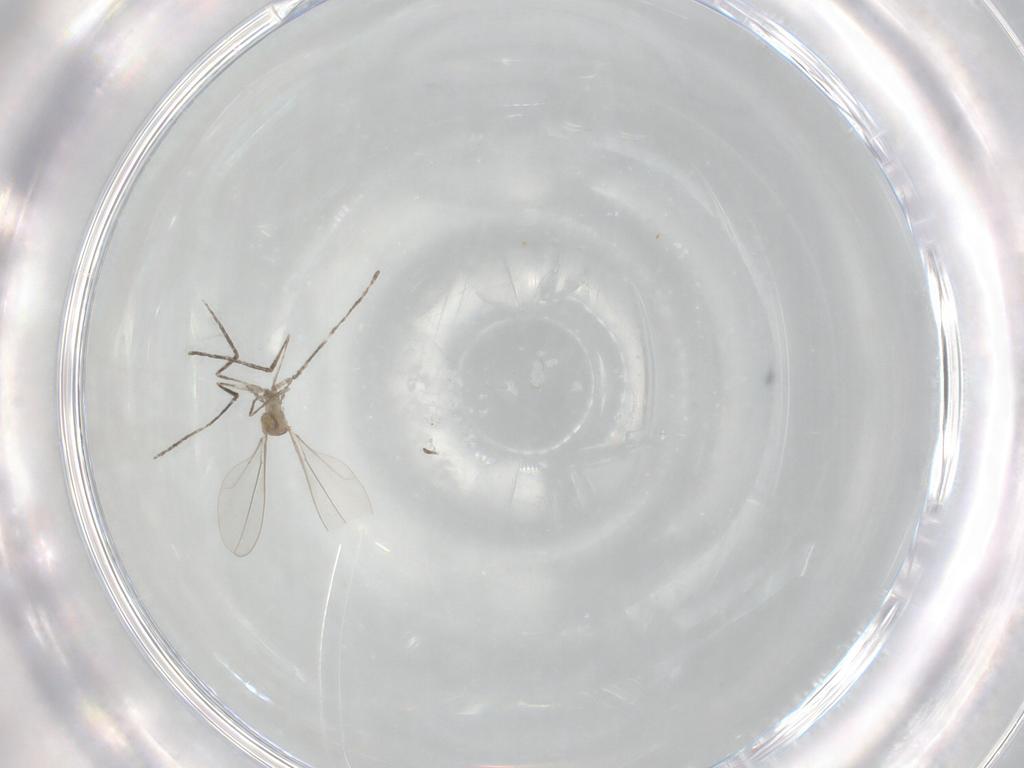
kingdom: Animalia
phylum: Arthropoda
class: Insecta
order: Diptera
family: Cecidomyiidae
